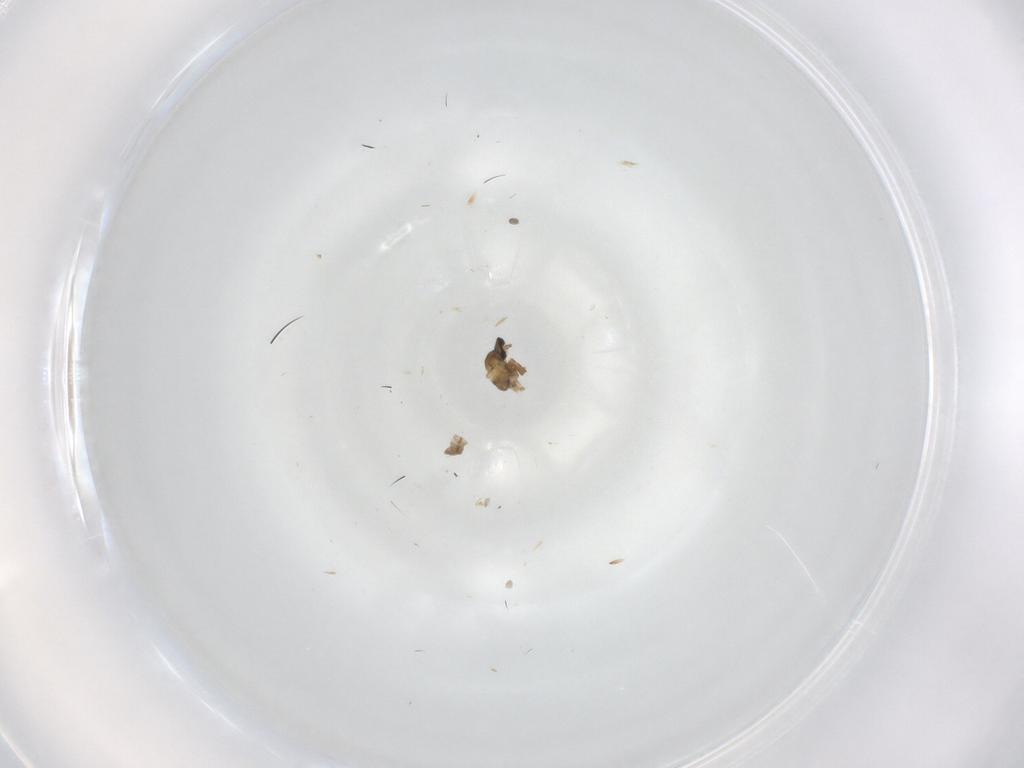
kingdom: Animalia
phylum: Arthropoda
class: Insecta
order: Diptera
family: Cecidomyiidae
